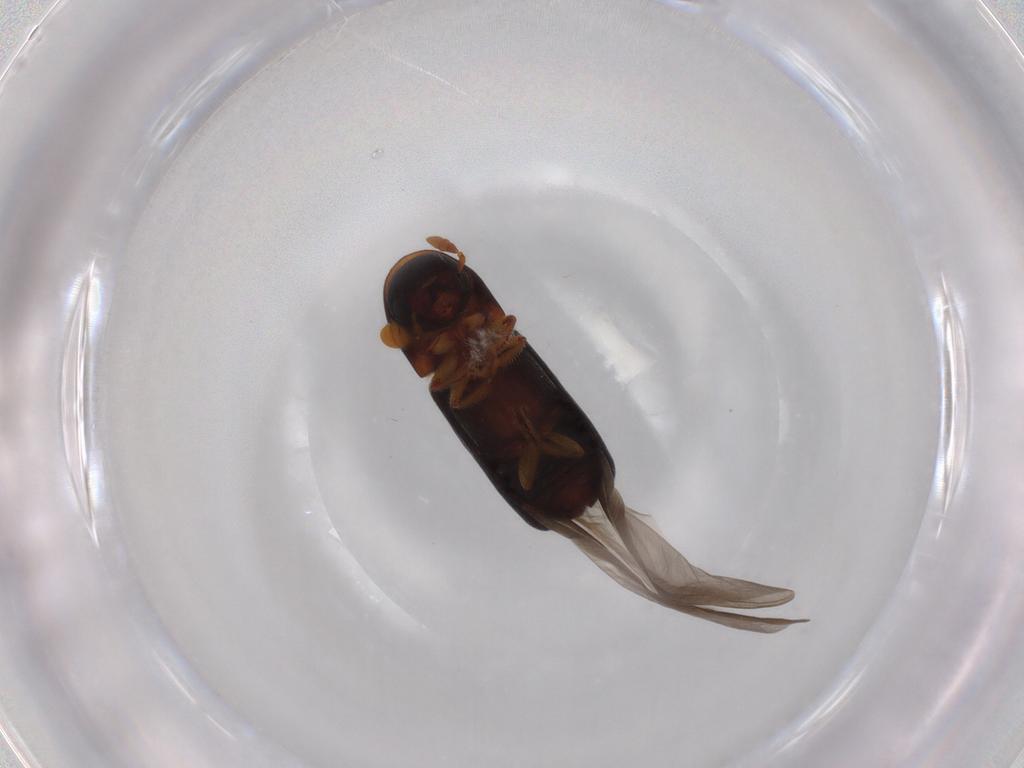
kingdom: Animalia
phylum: Arthropoda
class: Insecta
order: Coleoptera
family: Curculionidae
